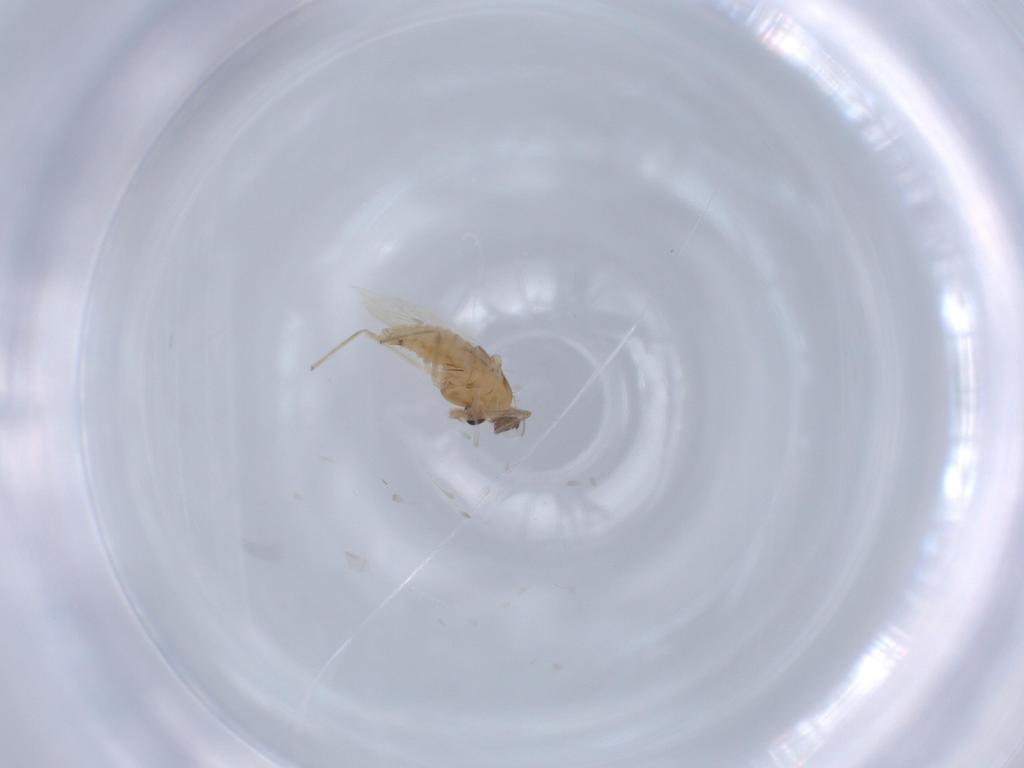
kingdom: Animalia
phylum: Arthropoda
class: Insecta
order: Diptera
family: Chironomidae
